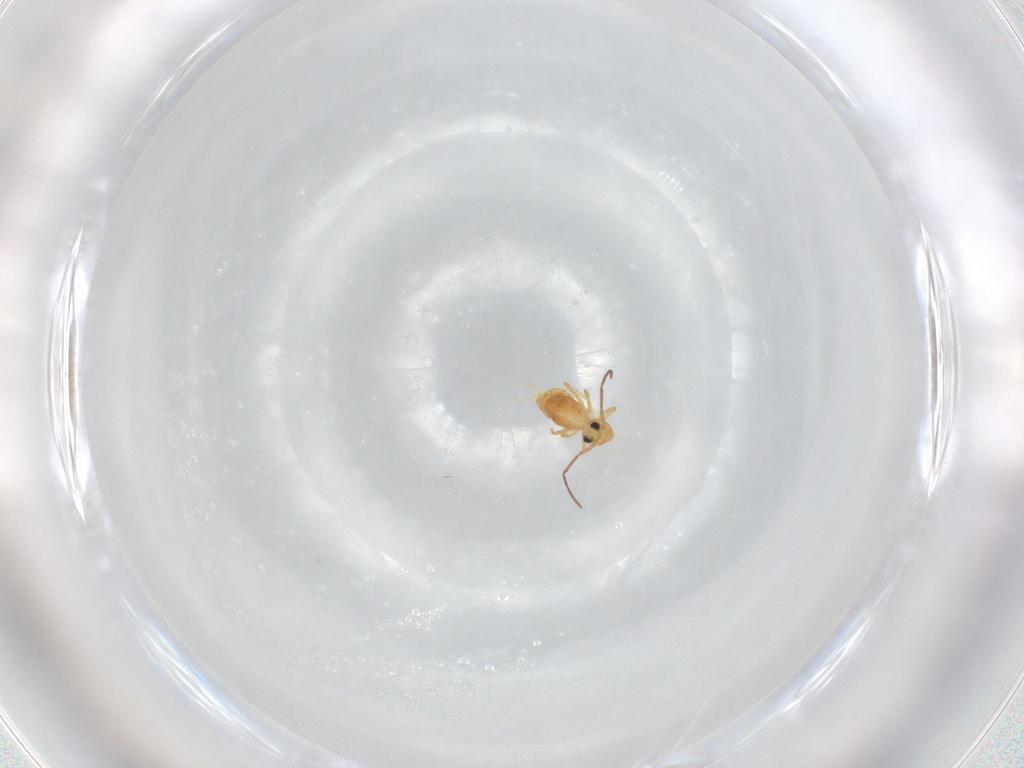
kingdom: Animalia
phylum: Arthropoda
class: Collembola
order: Symphypleona
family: Bourletiellidae
